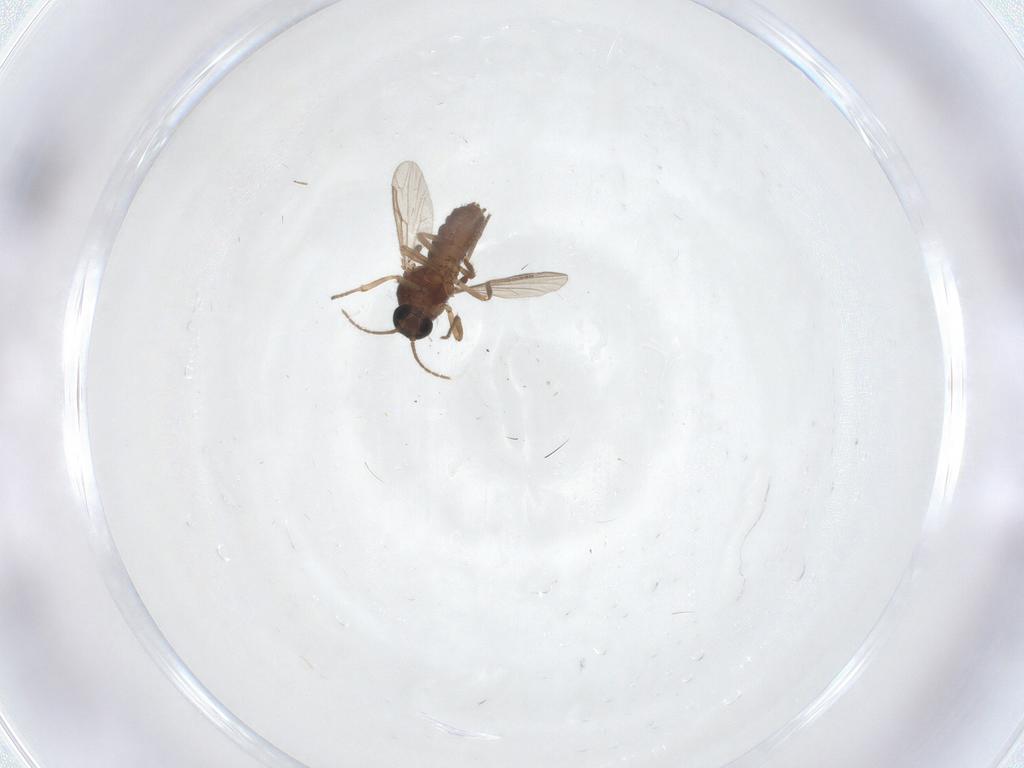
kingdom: Animalia
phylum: Arthropoda
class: Insecta
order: Diptera
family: Ceratopogonidae
